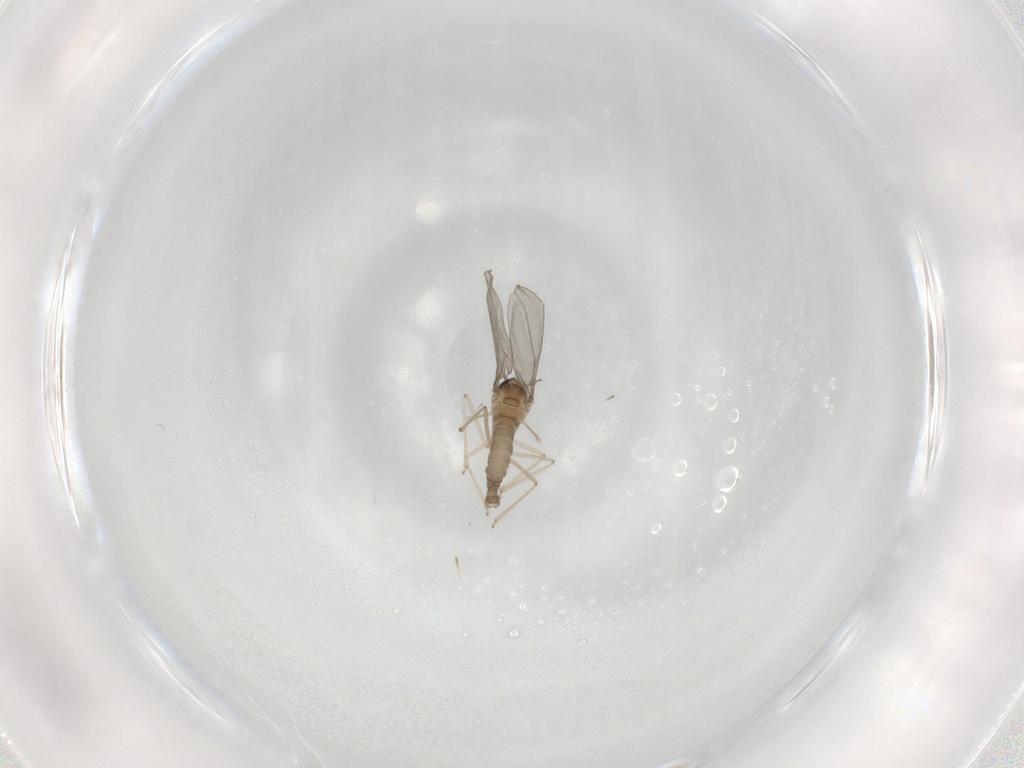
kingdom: Animalia
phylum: Arthropoda
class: Insecta
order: Diptera
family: Cecidomyiidae
